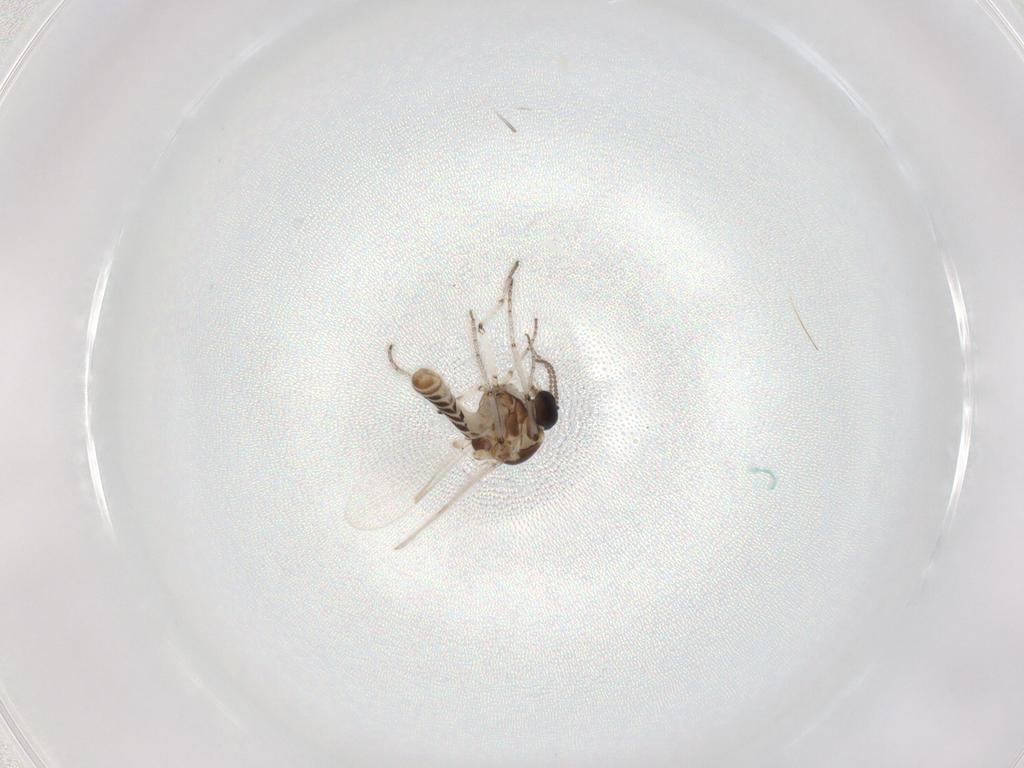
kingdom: Animalia
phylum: Arthropoda
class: Insecta
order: Diptera
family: Ceratopogonidae
